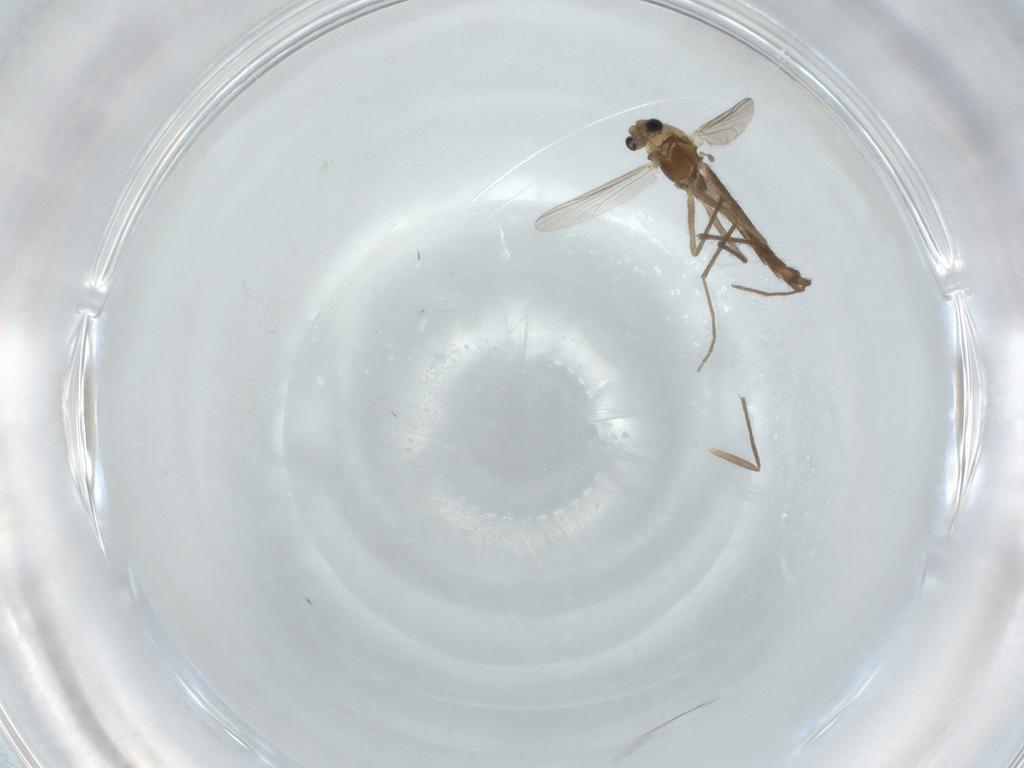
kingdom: Animalia
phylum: Arthropoda
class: Insecta
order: Diptera
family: Chironomidae
